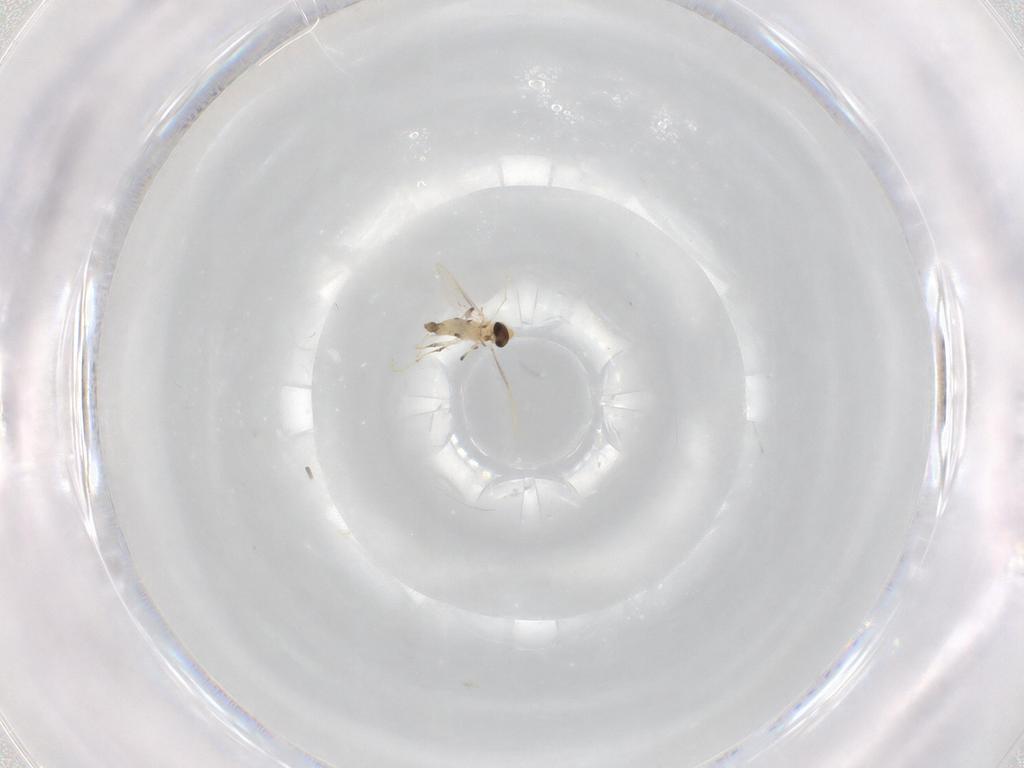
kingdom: Animalia
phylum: Arthropoda
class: Insecta
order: Diptera
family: Chironomidae
